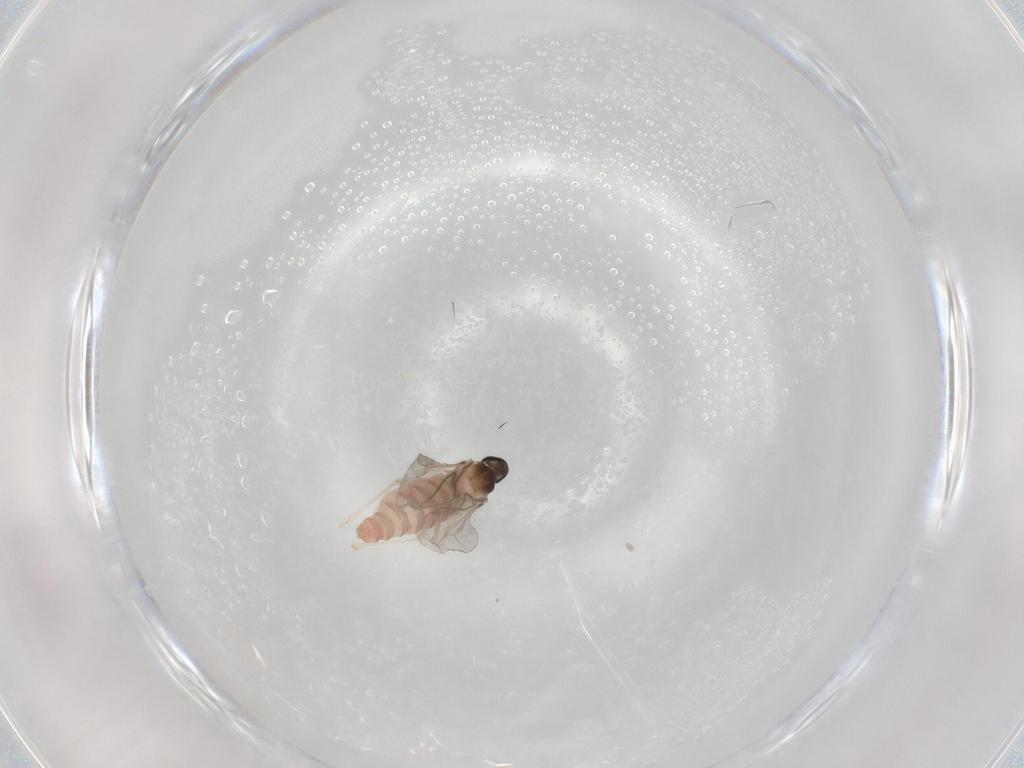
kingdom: Animalia
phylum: Arthropoda
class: Insecta
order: Diptera
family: Cecidomyiidae
